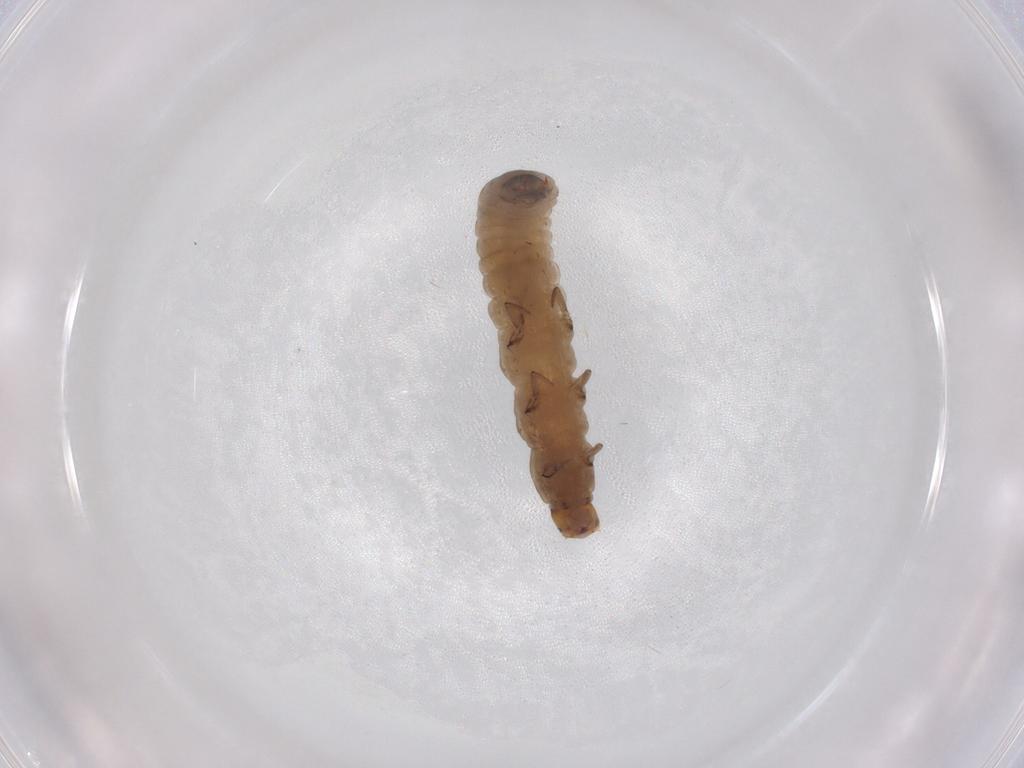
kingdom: Animalia
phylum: Arthropoda
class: Insecta
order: Coleoptera
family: Melyridae
